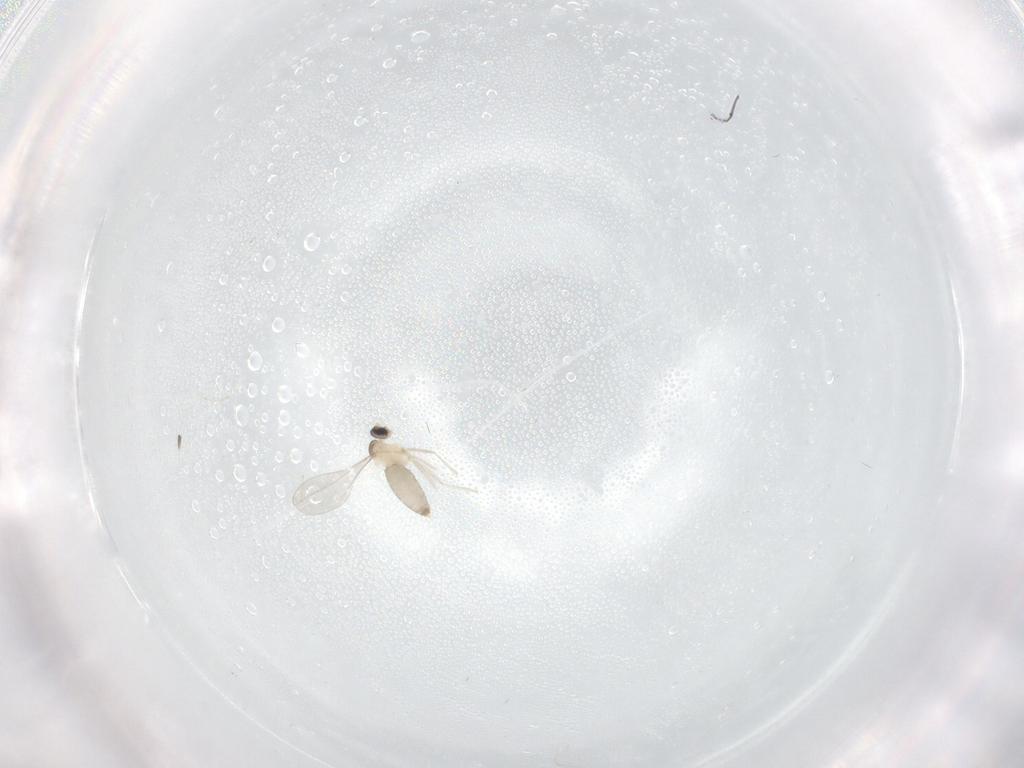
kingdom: Animalia
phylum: Arthropoda
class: Insecta
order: Diptera
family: Cecidomyiidae
